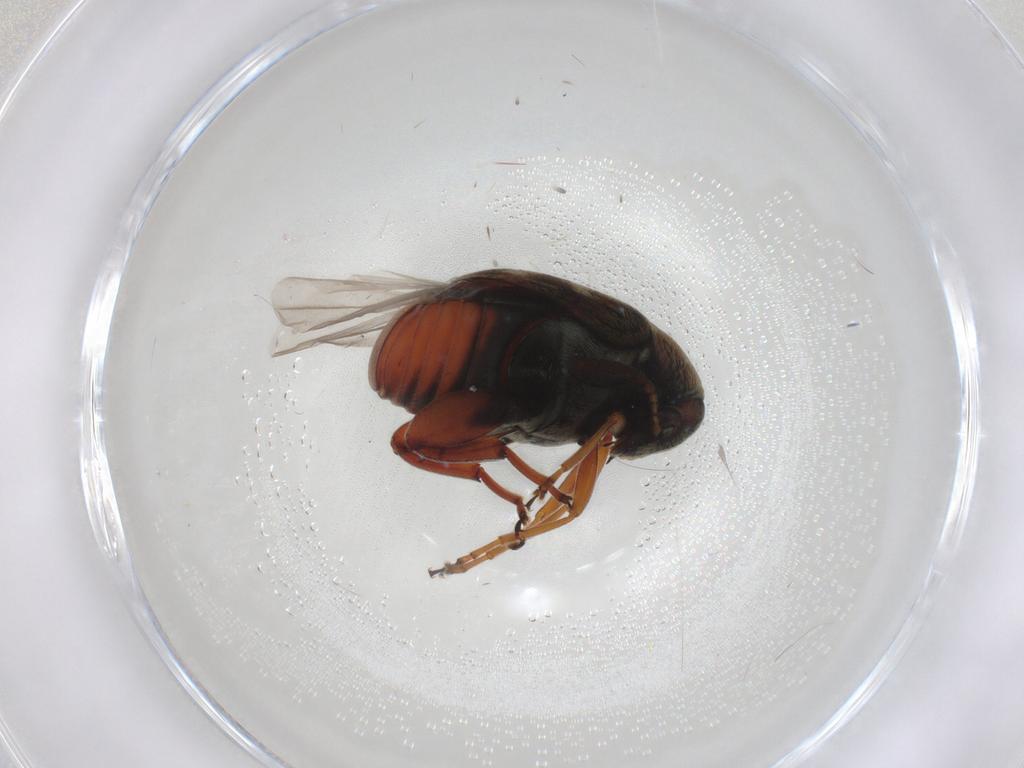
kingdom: Animalia
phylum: Arthropoda
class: Insecta
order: Coleoptera
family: Chrysomelidae
